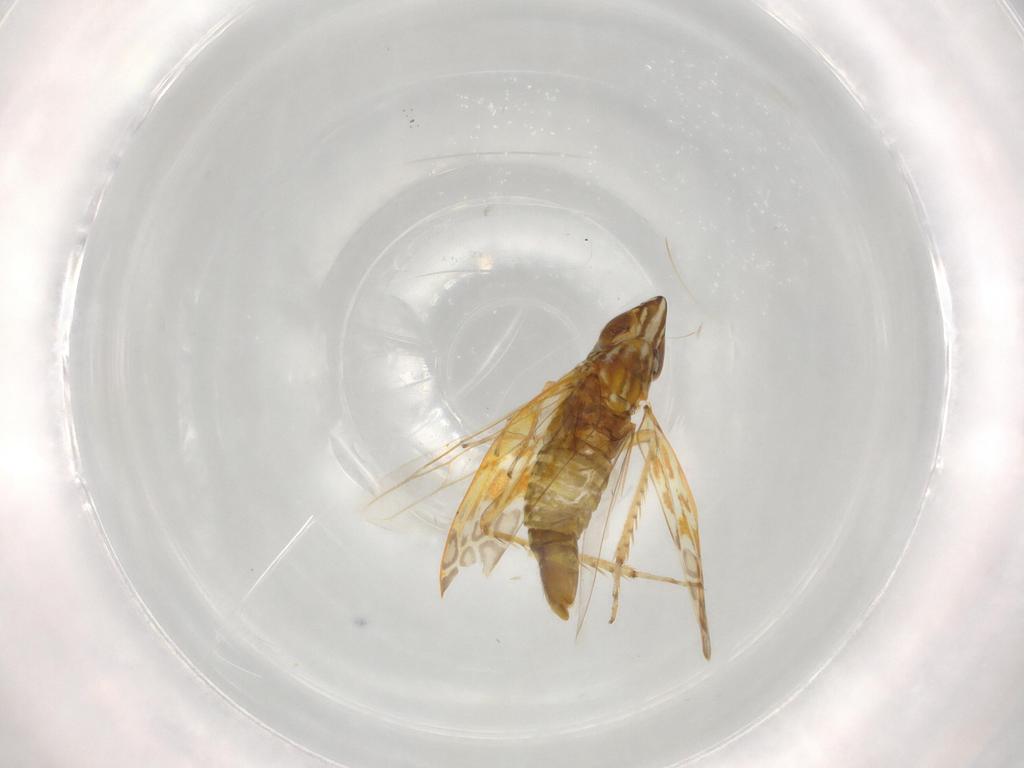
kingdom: Animalia
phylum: Arthropoda
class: Insecta
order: Hemiptera
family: Cicadellidae
